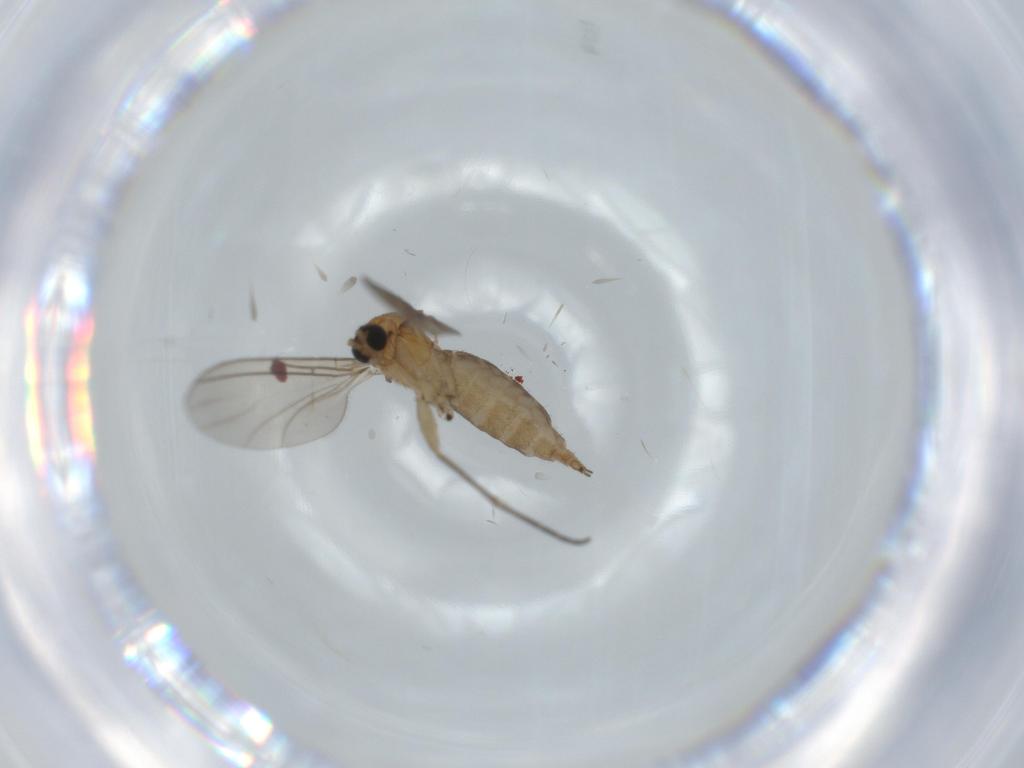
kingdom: Animalia
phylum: Arthropoda
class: Insecta
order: Diptera
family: Sciaridae
